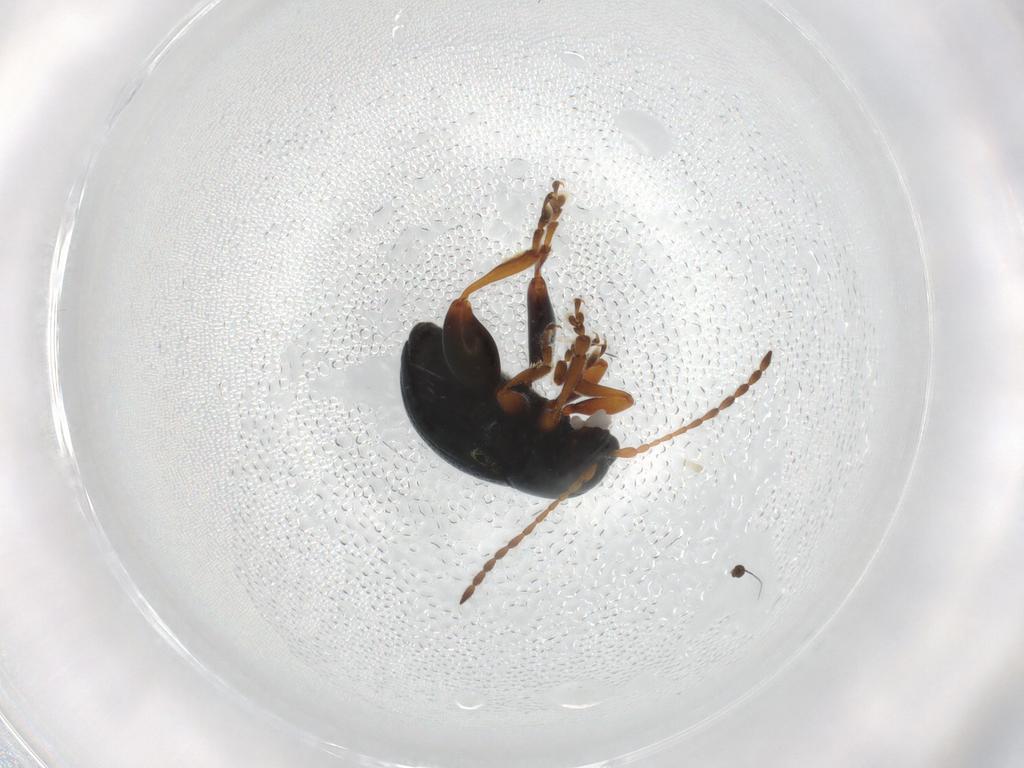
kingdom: Animalia
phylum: Arthropoda
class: Insecta
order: Coleoptera
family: Chrysomelidae
